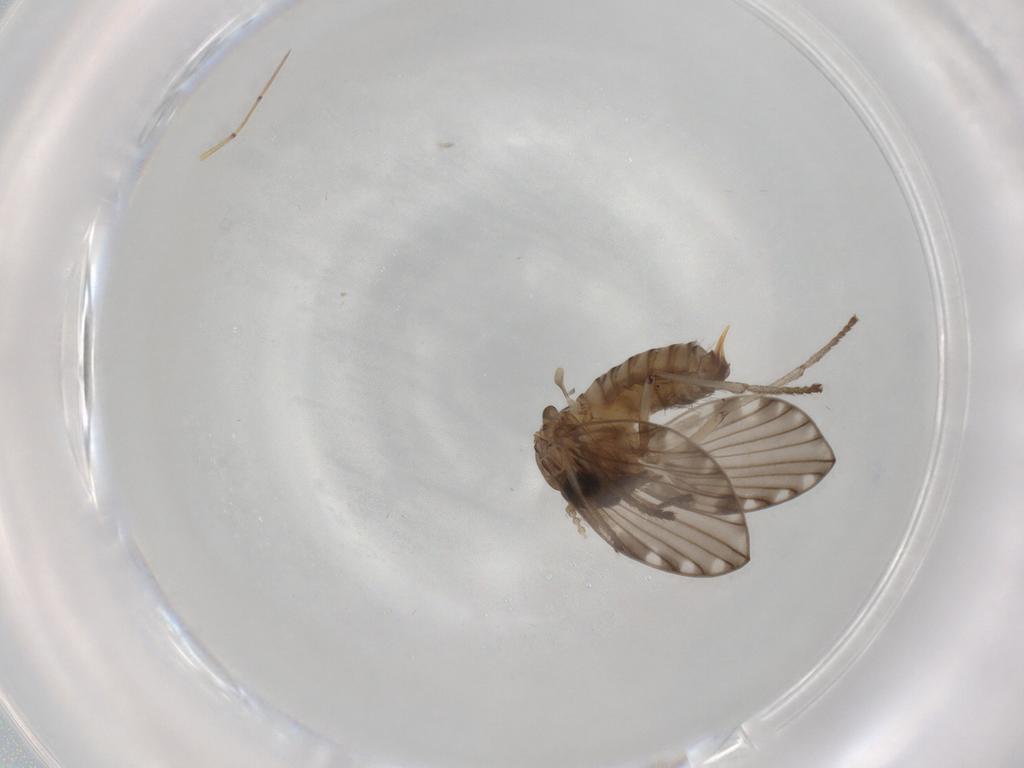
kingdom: Animalia
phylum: Arthropoda
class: Insecta
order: Diptera
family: Psychodidae
